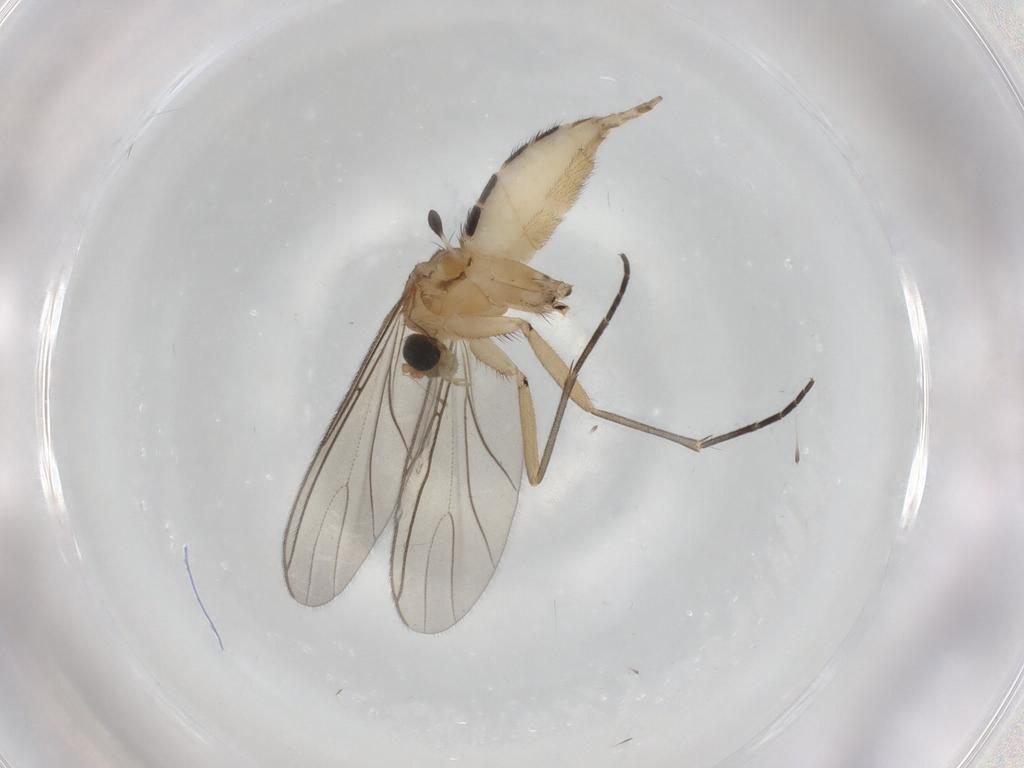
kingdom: Animalia
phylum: Arthropoda
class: Insecta
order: Diptera
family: Sciaridae
